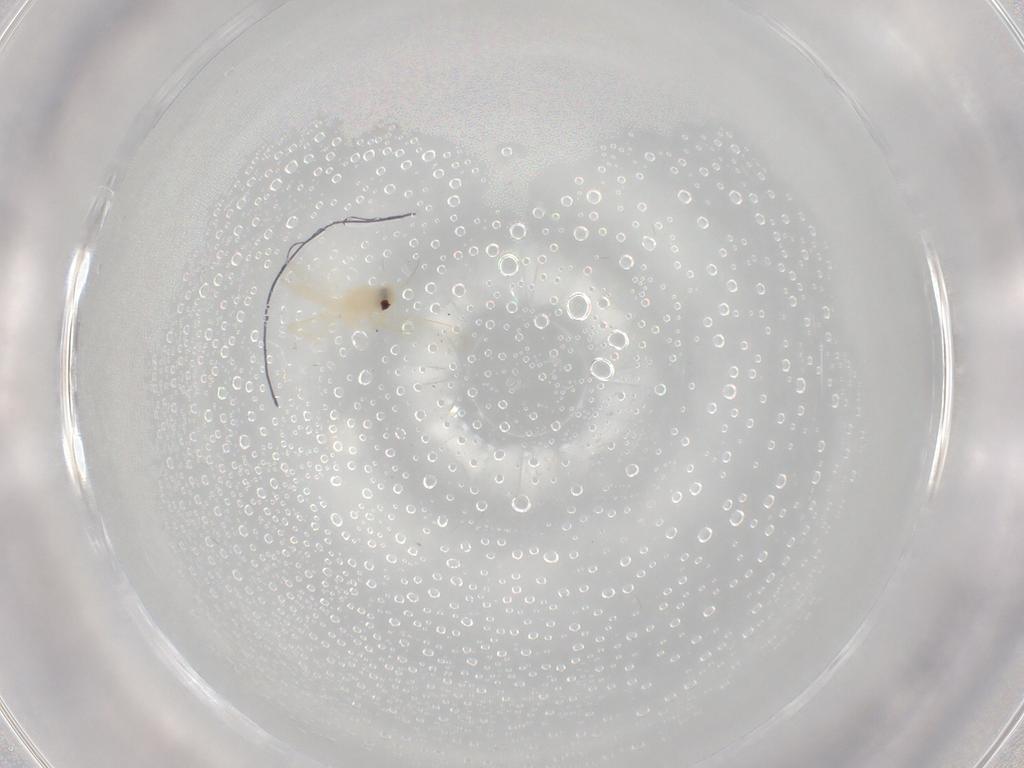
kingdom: Animalia
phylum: Arthropoda
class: Insecta
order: Hemiptera
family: Aleyrodidae
